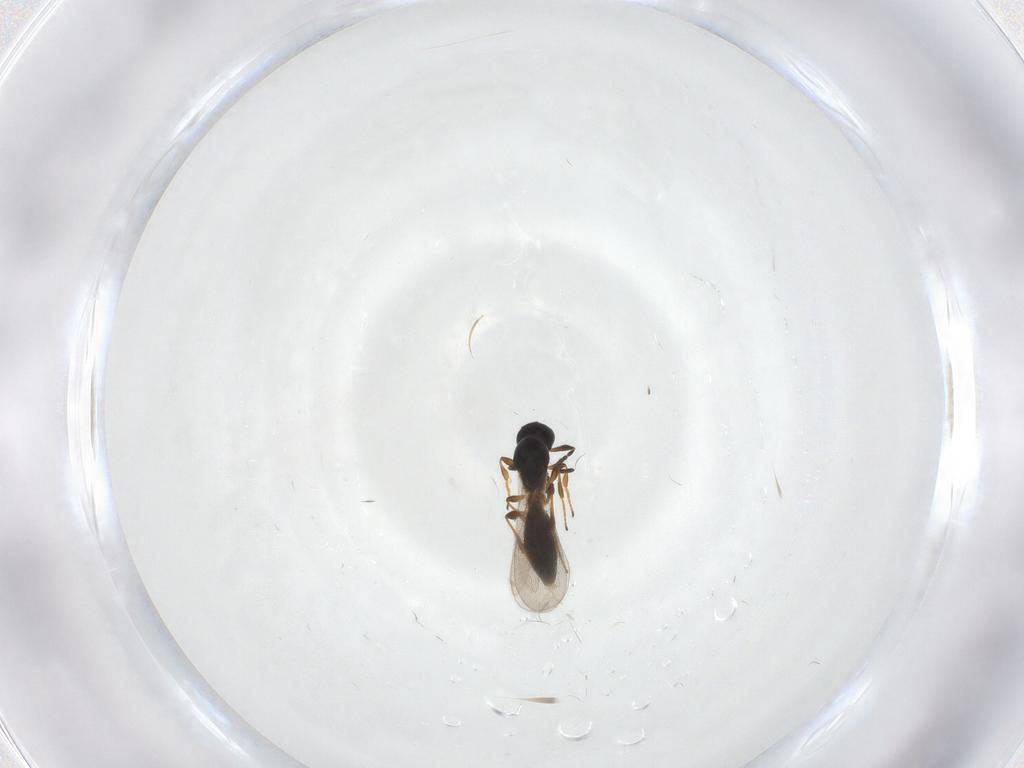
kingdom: Animalia
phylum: Arthropoda
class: Insecta
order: Hymenoptera
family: Platygastridae
